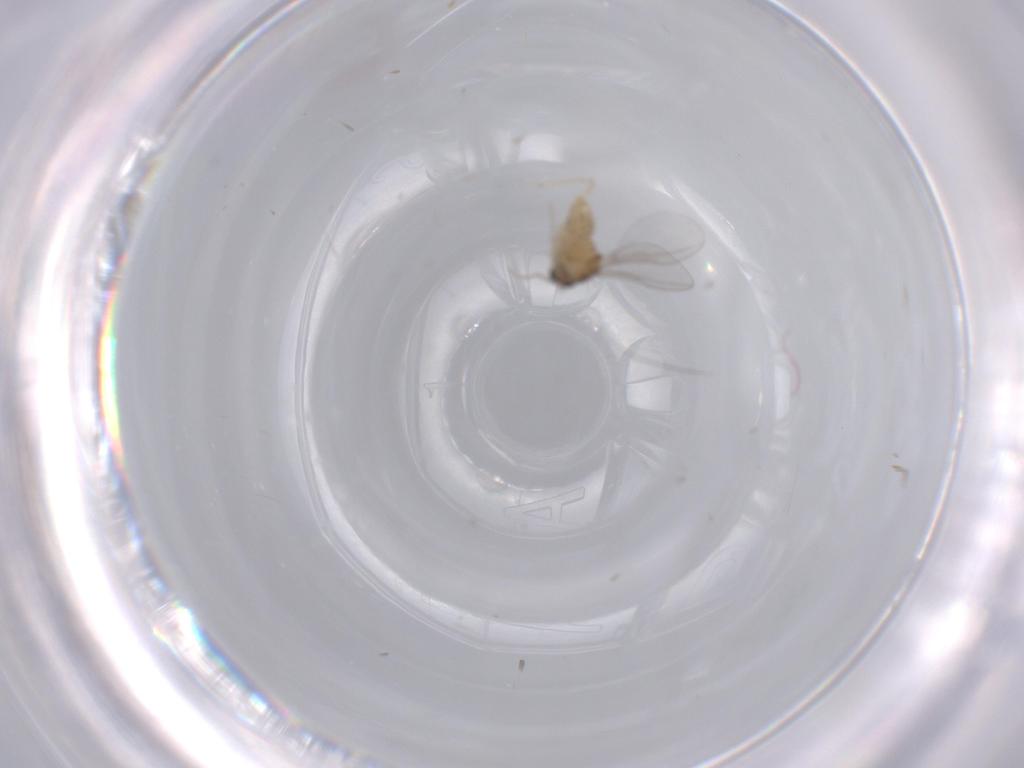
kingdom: Animalia
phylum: Arthropoda
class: Insecta
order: Diptera
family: Cecidomyiidae
